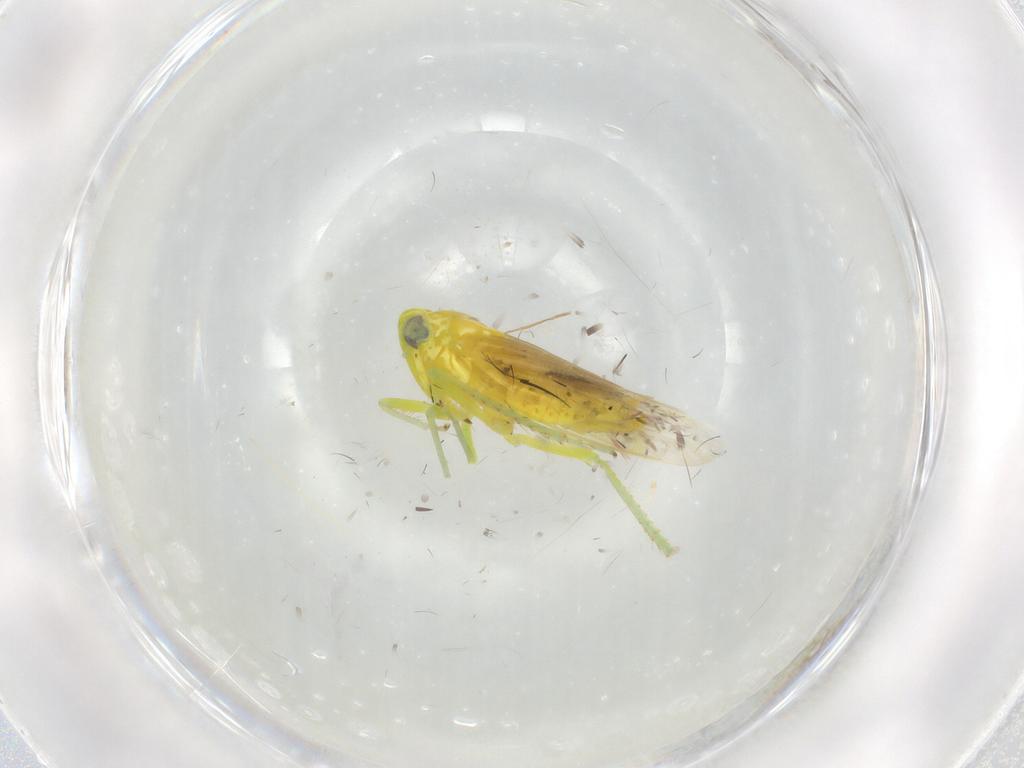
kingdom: Animalia
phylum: Arthropoda
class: Insecta
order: Hemiptera
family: Cicadellidae
